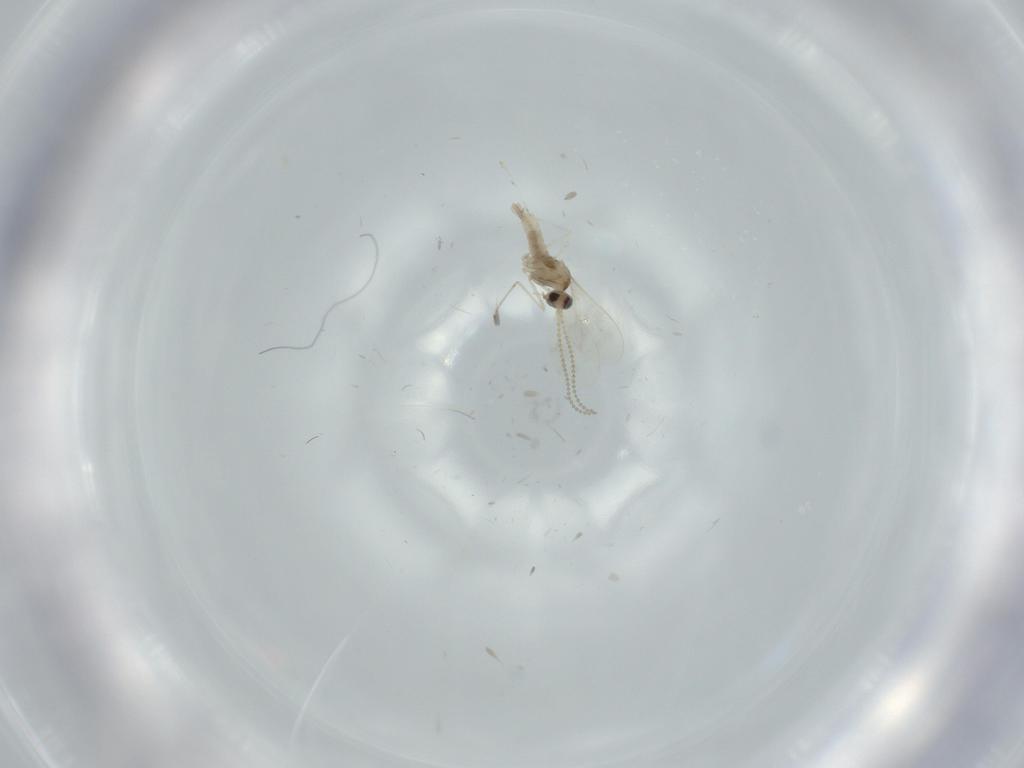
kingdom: Animalia
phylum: Arthropoda
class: Insecta
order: Diptera
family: Cecidomyiidae
